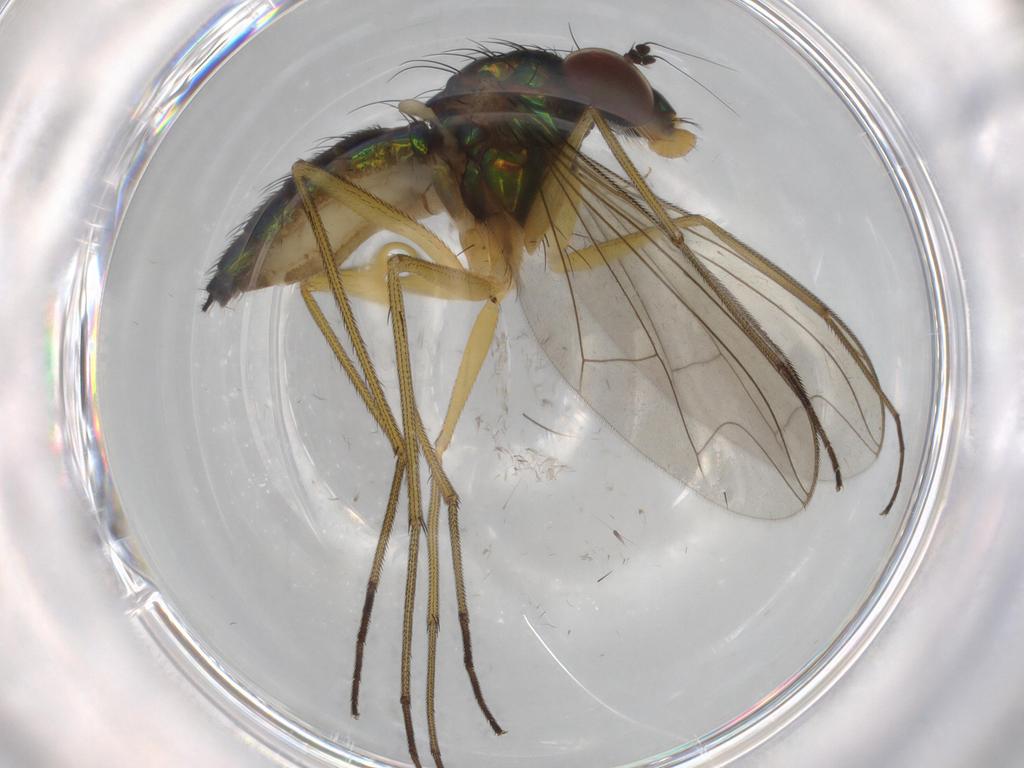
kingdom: Animalia
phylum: Arthropoda
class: Insecta
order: Diptera
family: Dolichopodidae
